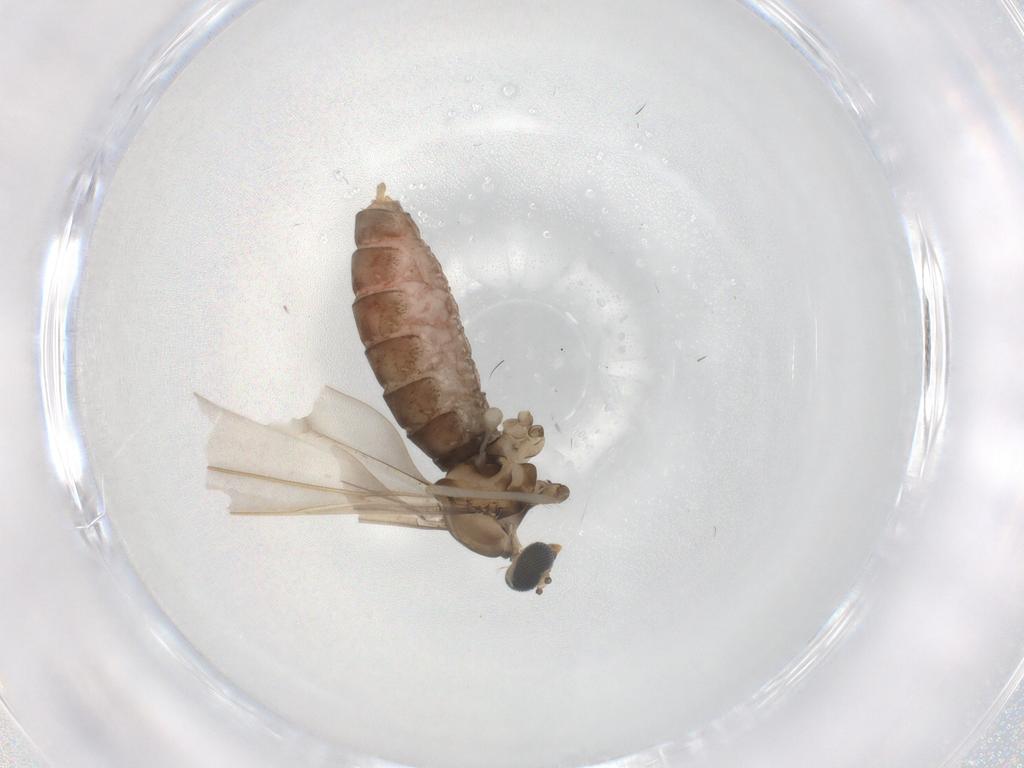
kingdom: Animalia
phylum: Arthropoda
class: Insecta
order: Diptera
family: Cecidomyiidae
